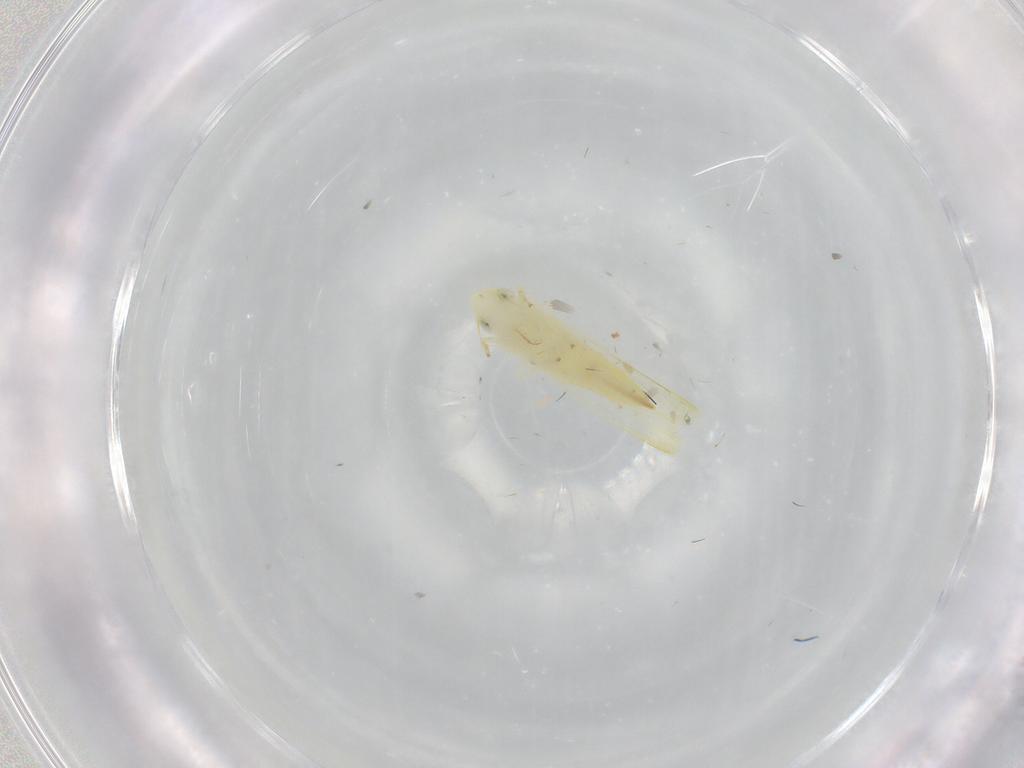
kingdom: Animalia
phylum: Arthropoda
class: Insecta
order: Hemiptera
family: Cicadellidae
